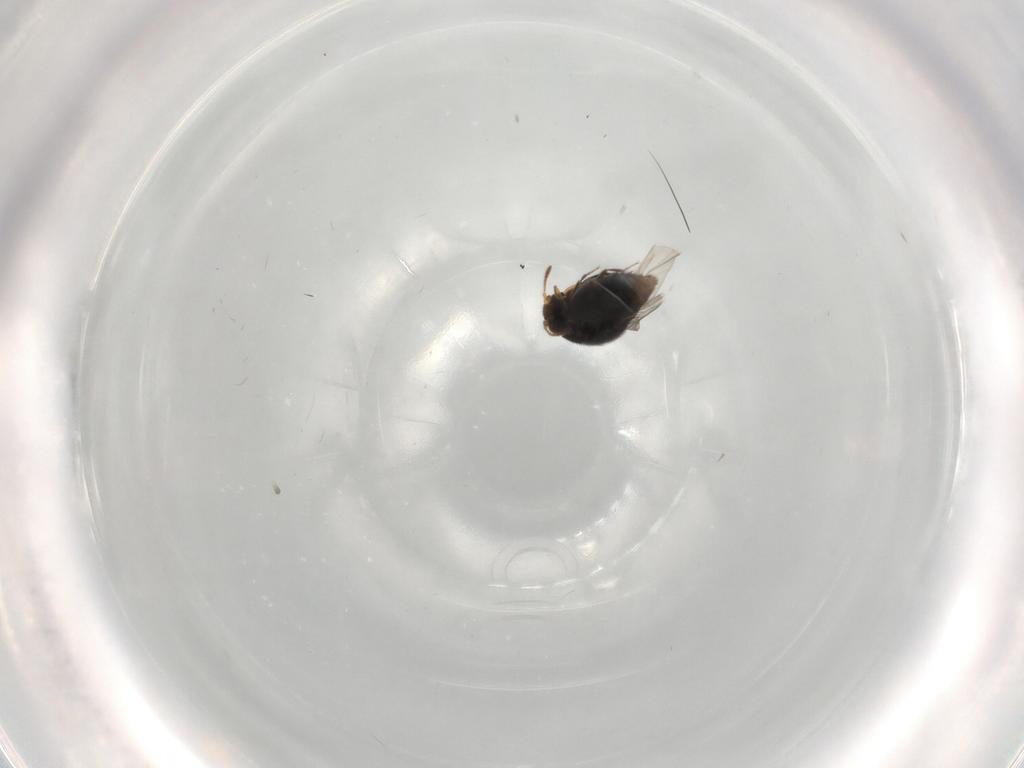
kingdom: Animalia
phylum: Arthropoda
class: Insecta
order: Coleoptera
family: Staphylinidae
